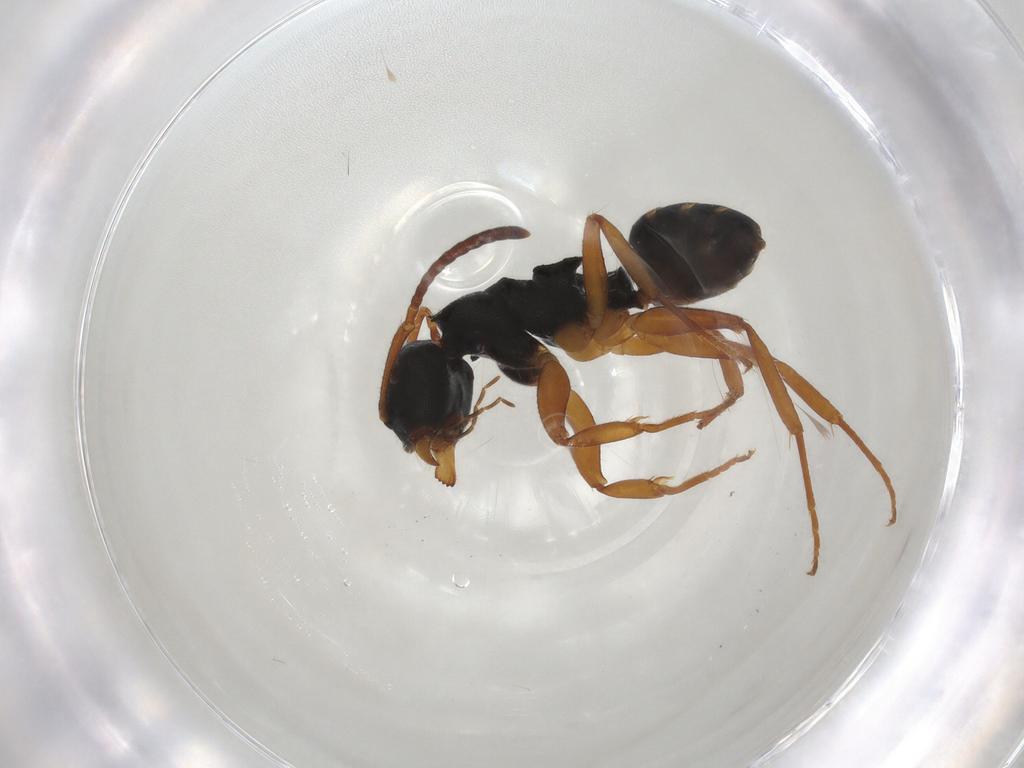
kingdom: Animalia
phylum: Arthropoda
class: Insecta
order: Hymenoptera
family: Formicidae
